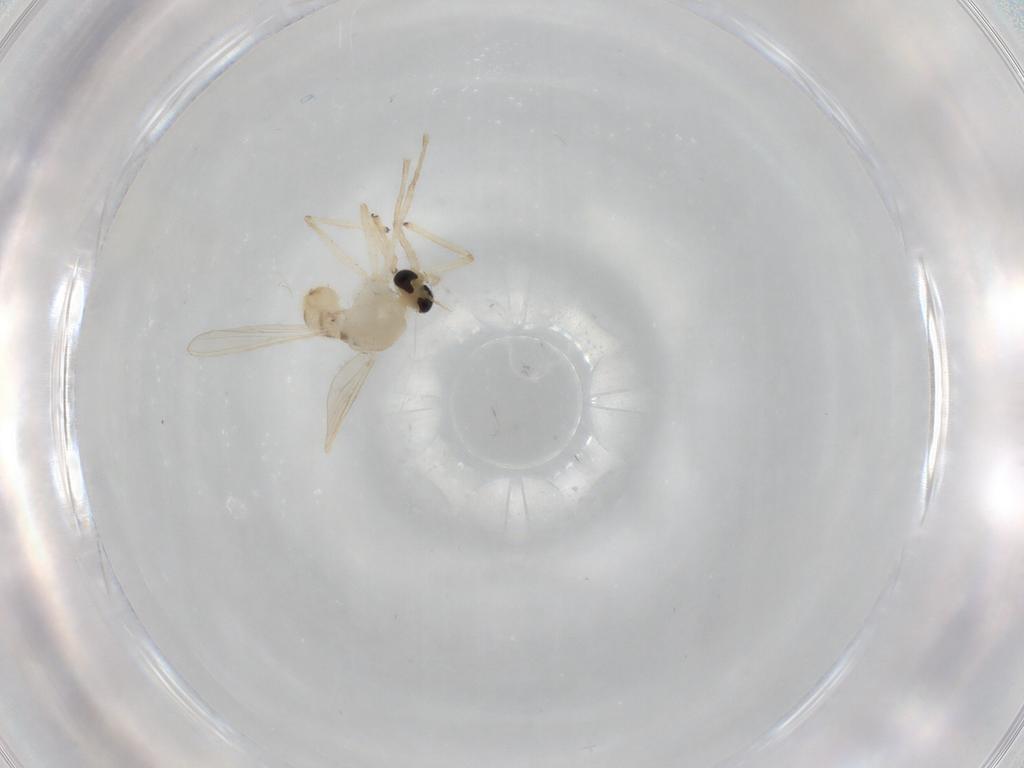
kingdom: Animalia
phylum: Arthropoda
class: Insecta
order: Diptera
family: Chironomidae
